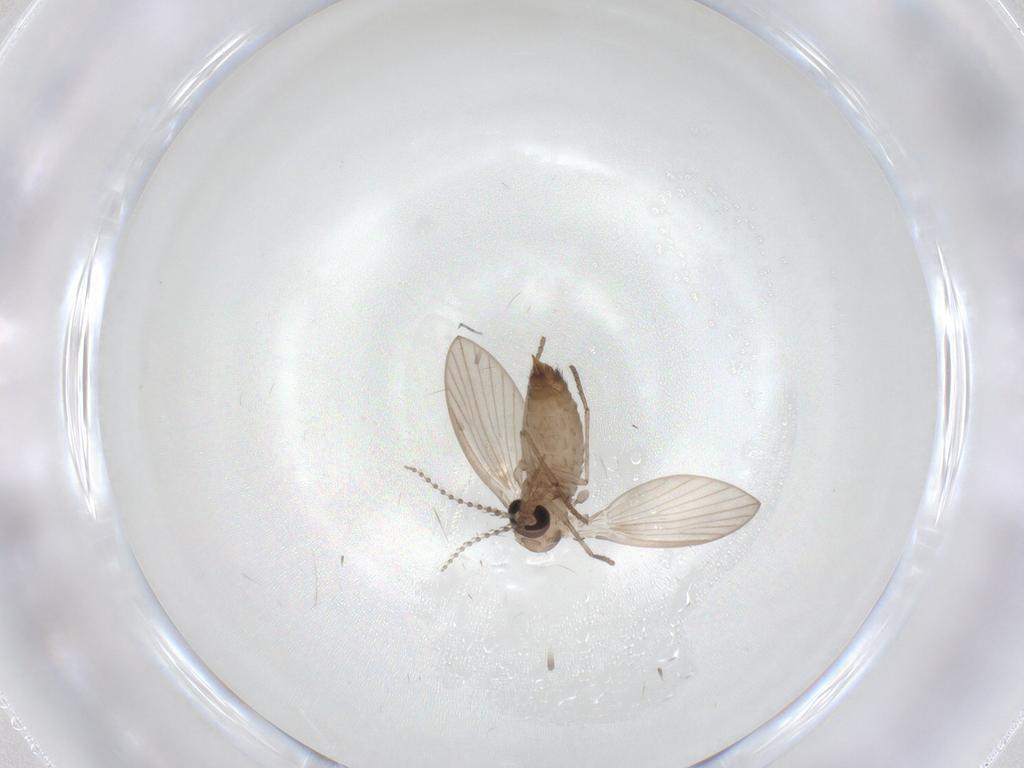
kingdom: Animalia
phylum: Arthropoda
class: Insecta
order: Diptera
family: Psychodidae
